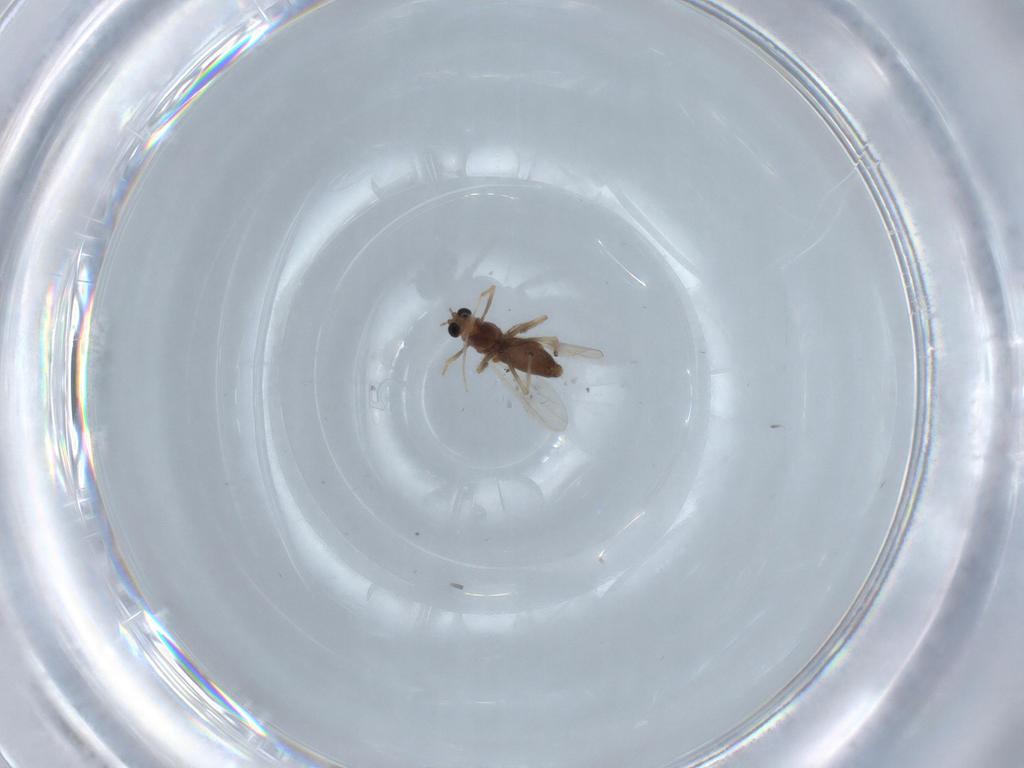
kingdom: Animalia
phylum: Arthropoda
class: Insecta
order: Diptera
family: Chironomidae
